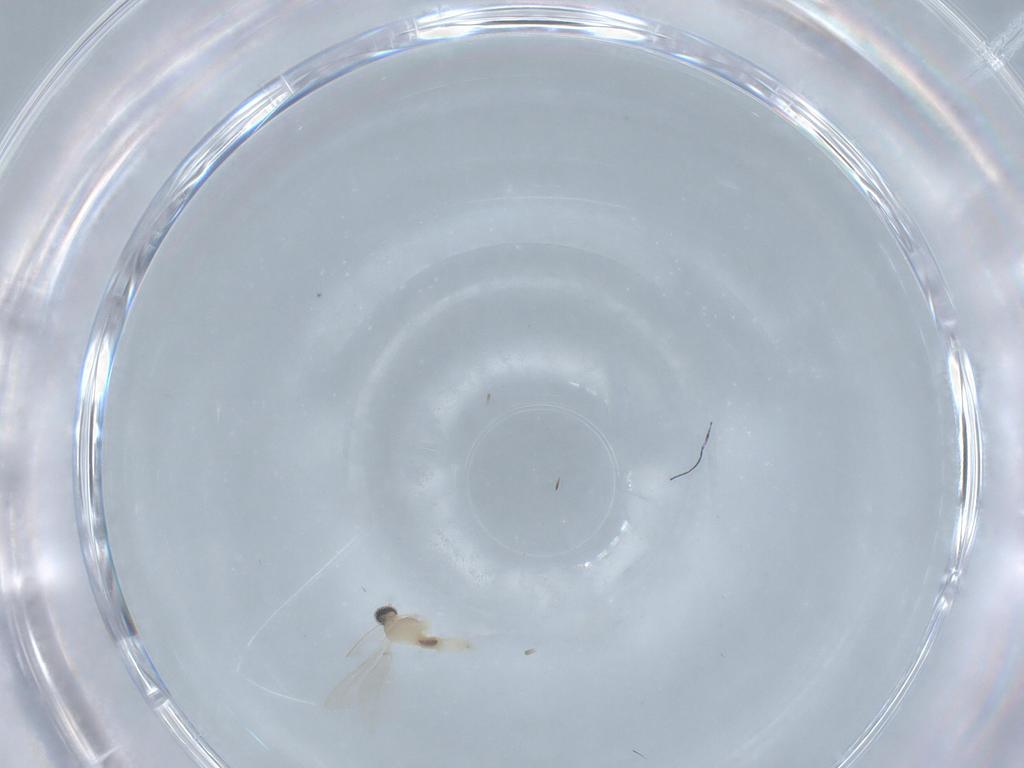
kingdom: Animalia
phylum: Arthropoda
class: Insecta
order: Diptera
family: Cecidomyiidae
